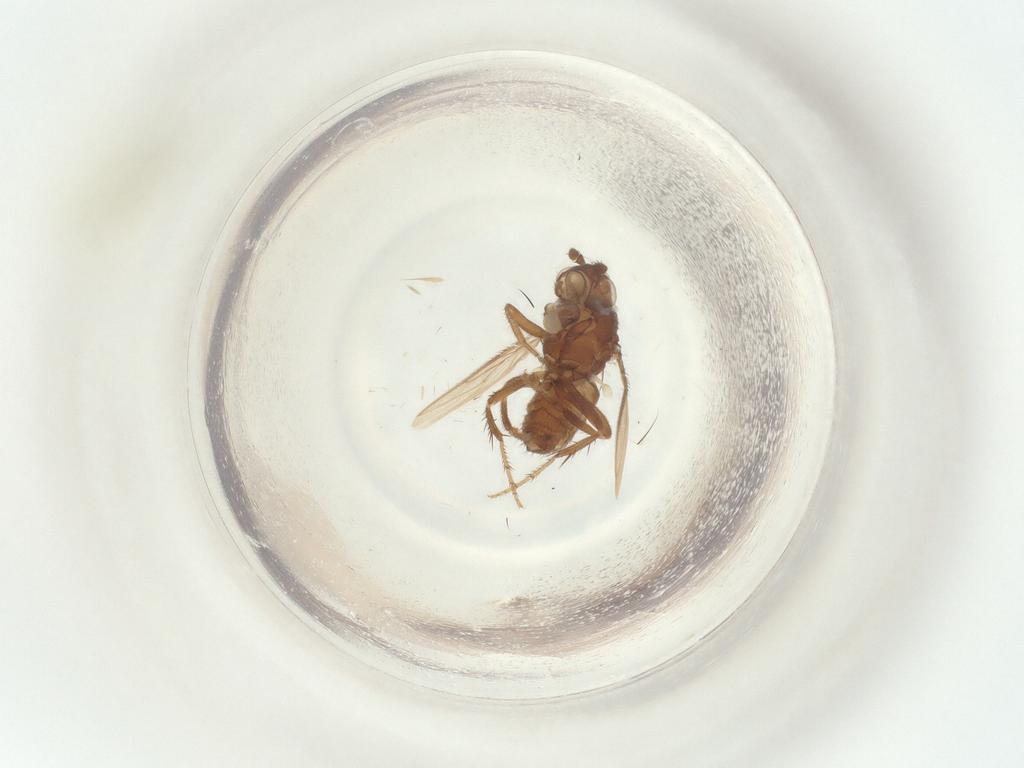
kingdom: Animalia
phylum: Arthropoda
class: Insecta
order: Diptera
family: Sphaeroceridae
